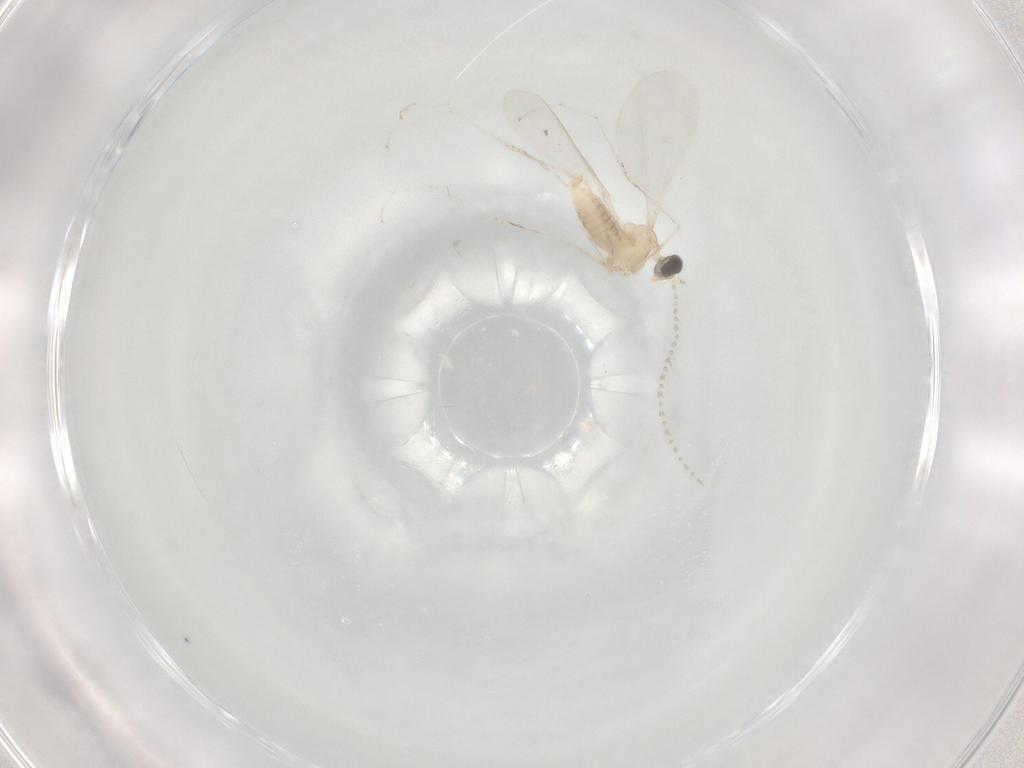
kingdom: Animalia
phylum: Arthropoda
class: Insecta
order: Diptera
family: Cecidomyiidae
